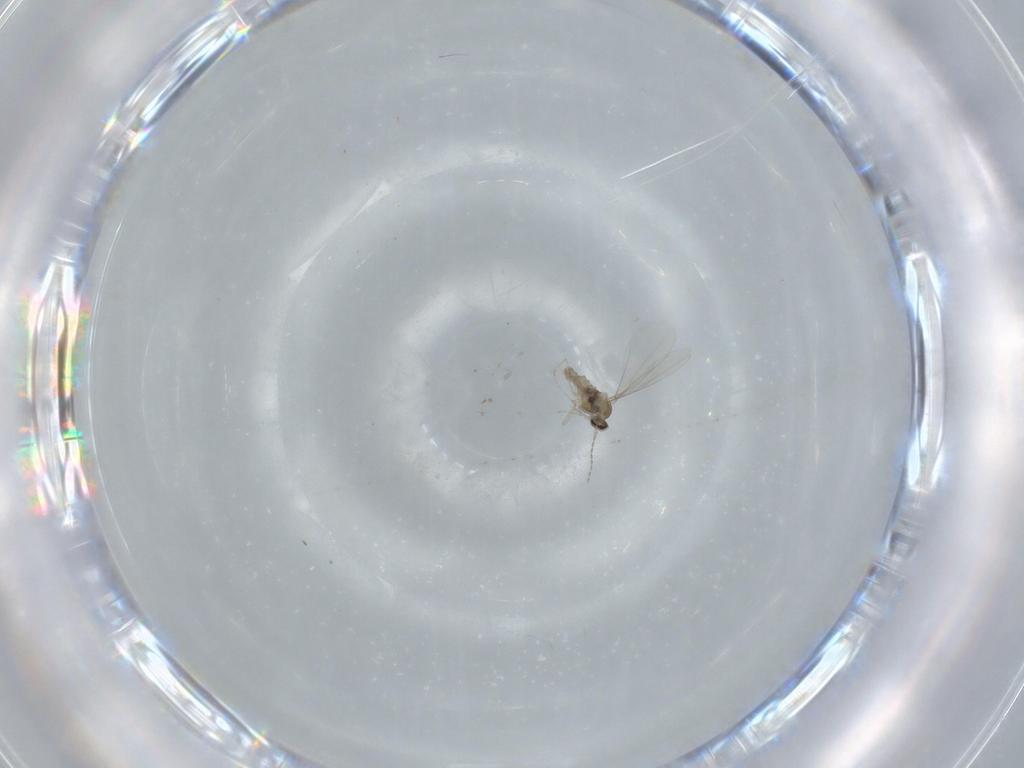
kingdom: Animalia
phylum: Arthropoda
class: Insecta
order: Diptera
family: Cecidomyiidae
